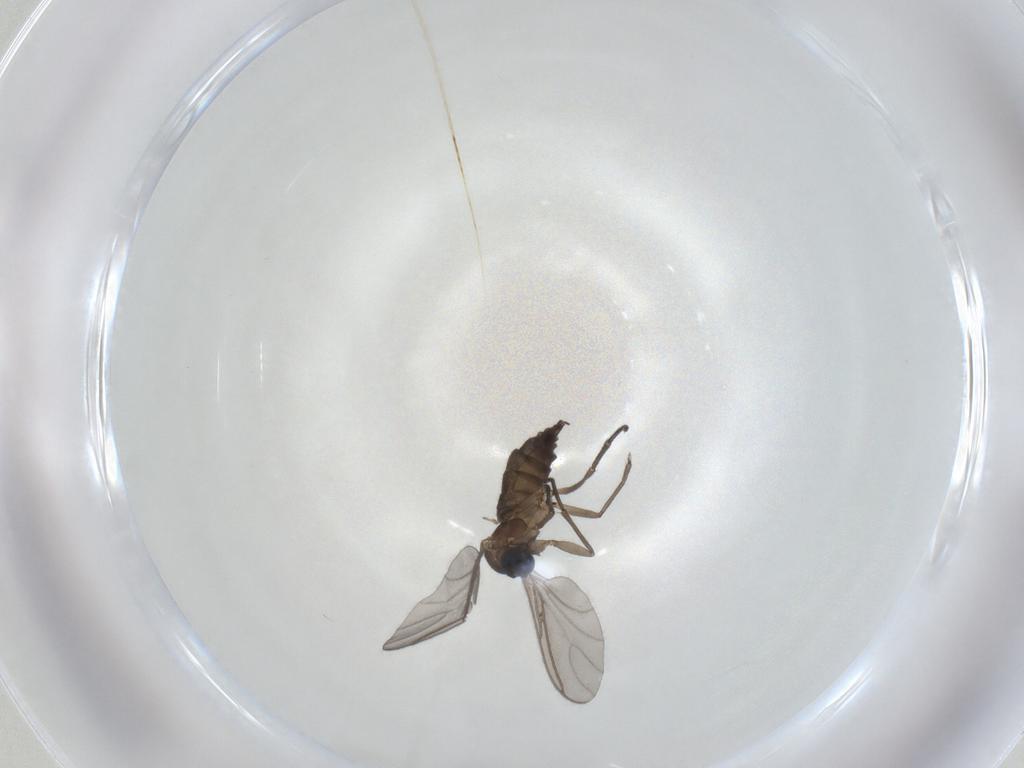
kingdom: Animalia
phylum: Arthropoda
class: Insecta
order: Diptera
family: Sciaridae
